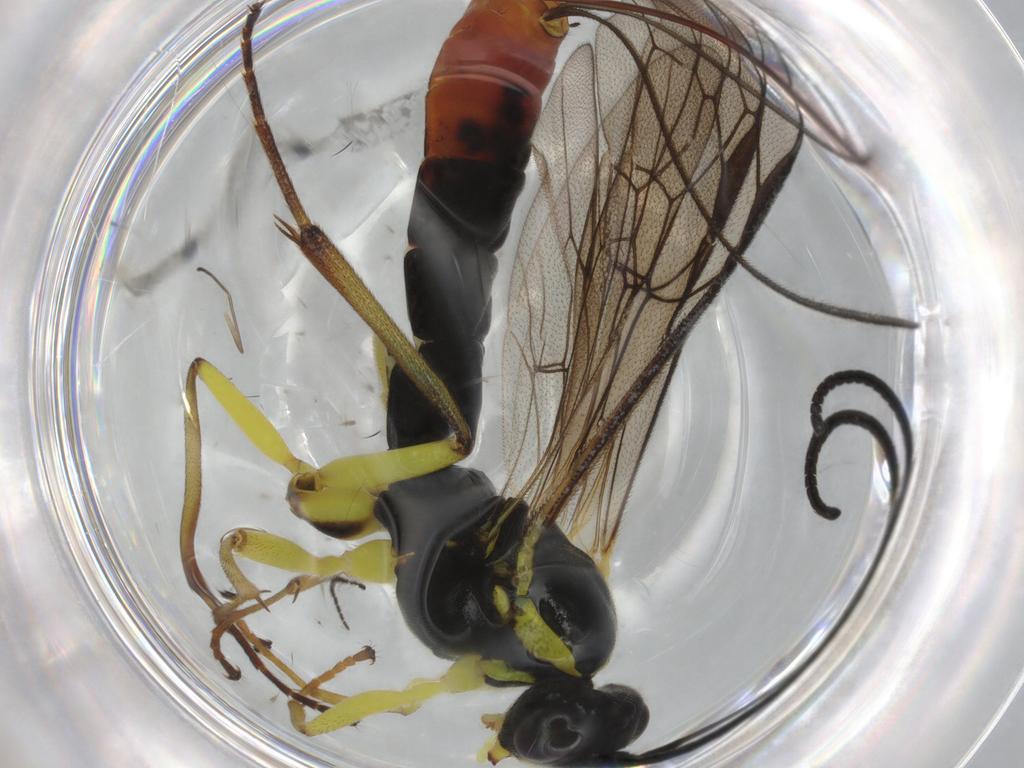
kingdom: Animalia
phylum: Arthropoda
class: Insecta
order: Hymenoptera
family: Ichneumonidae
